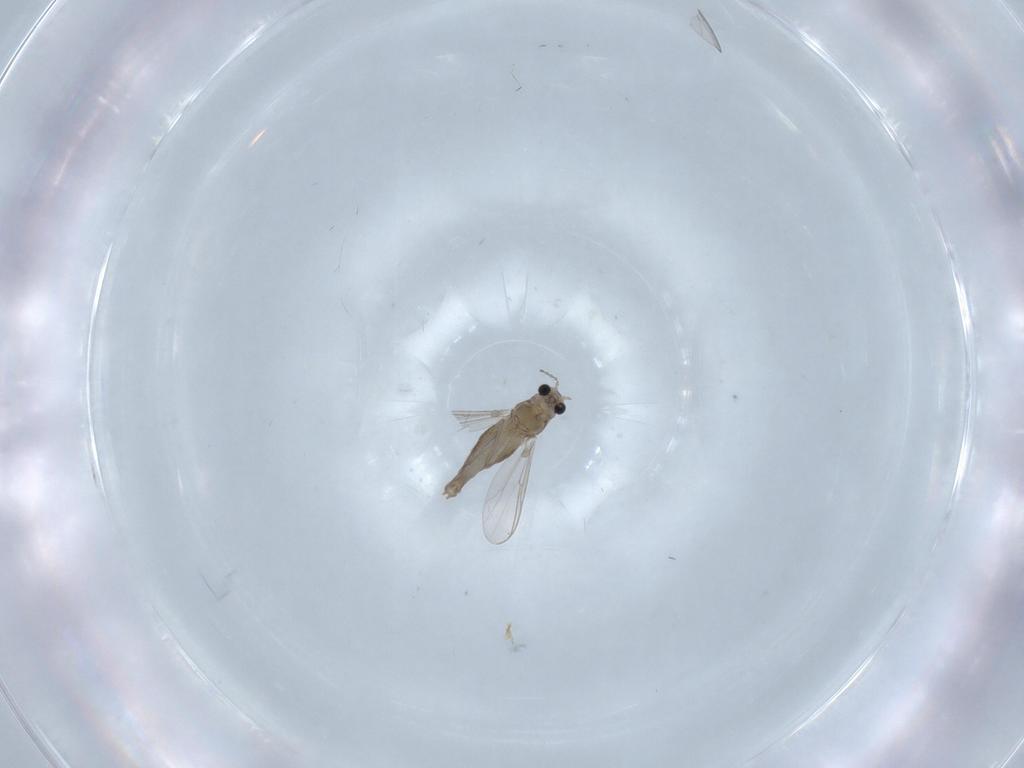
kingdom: Animalia
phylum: Arthropoda
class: Insecta
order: Diptera
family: Chironomidae
